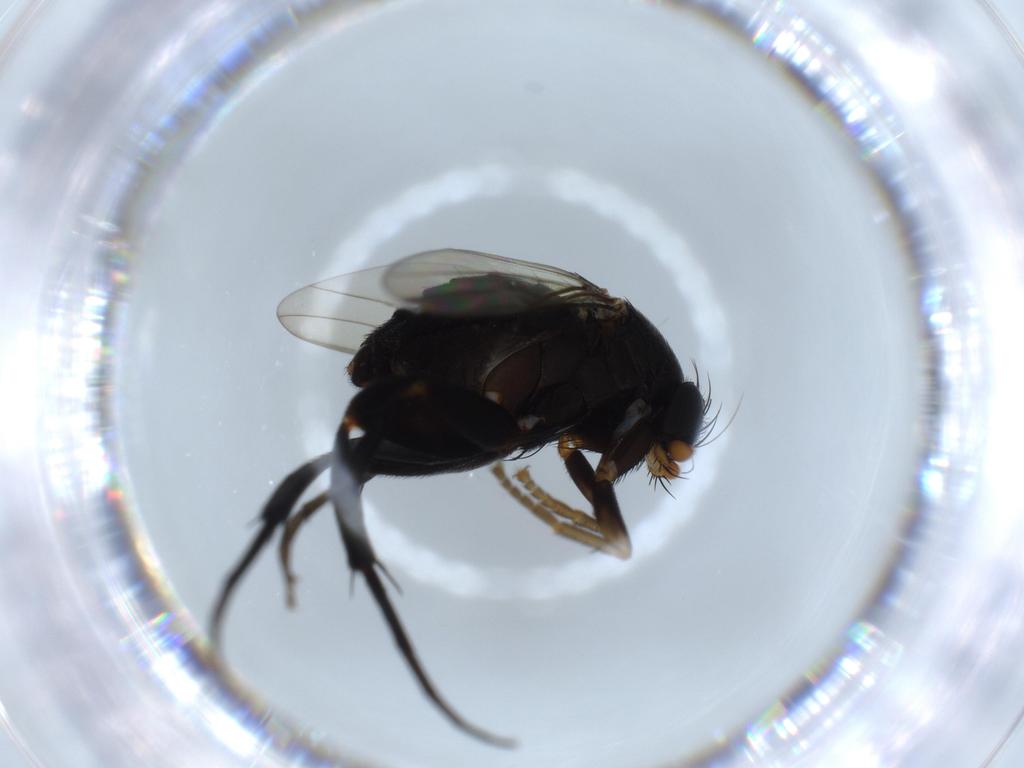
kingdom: Animalia
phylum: Arthropoda
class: Insecta
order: Diptera
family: Phoridae
